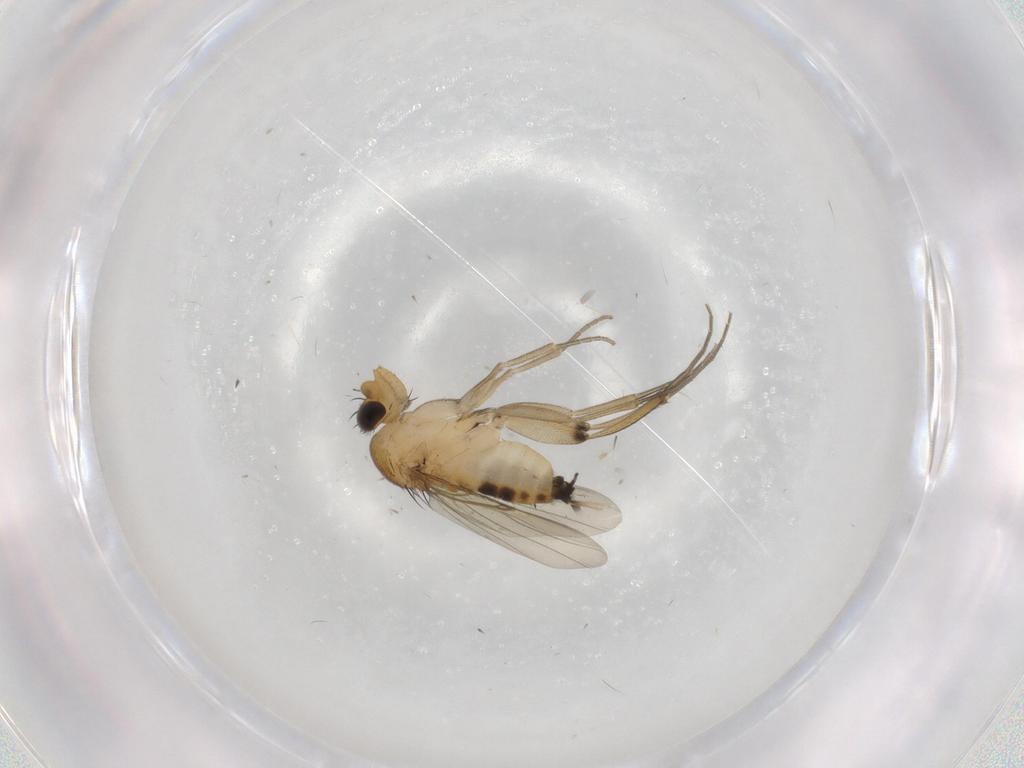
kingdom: Animalia
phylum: Arthropoda
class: Insecta
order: Diptera
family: Phoridae
